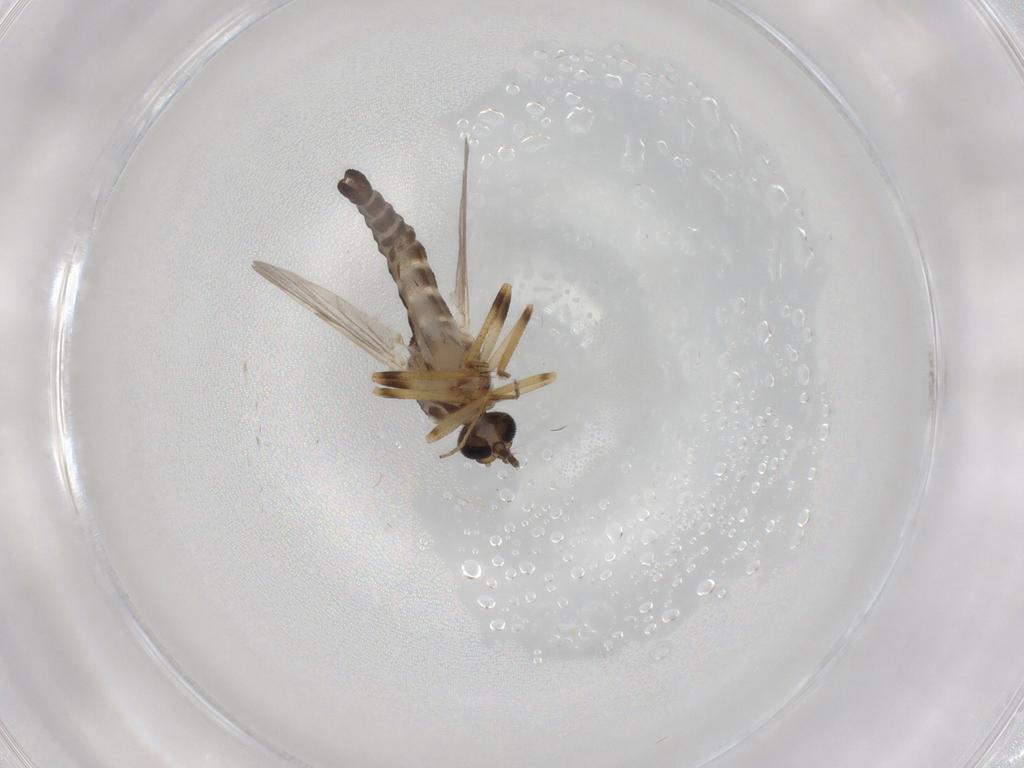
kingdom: Animalia
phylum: Arthropoda
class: Insecta
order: Diptera
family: Ceratopogonidae
